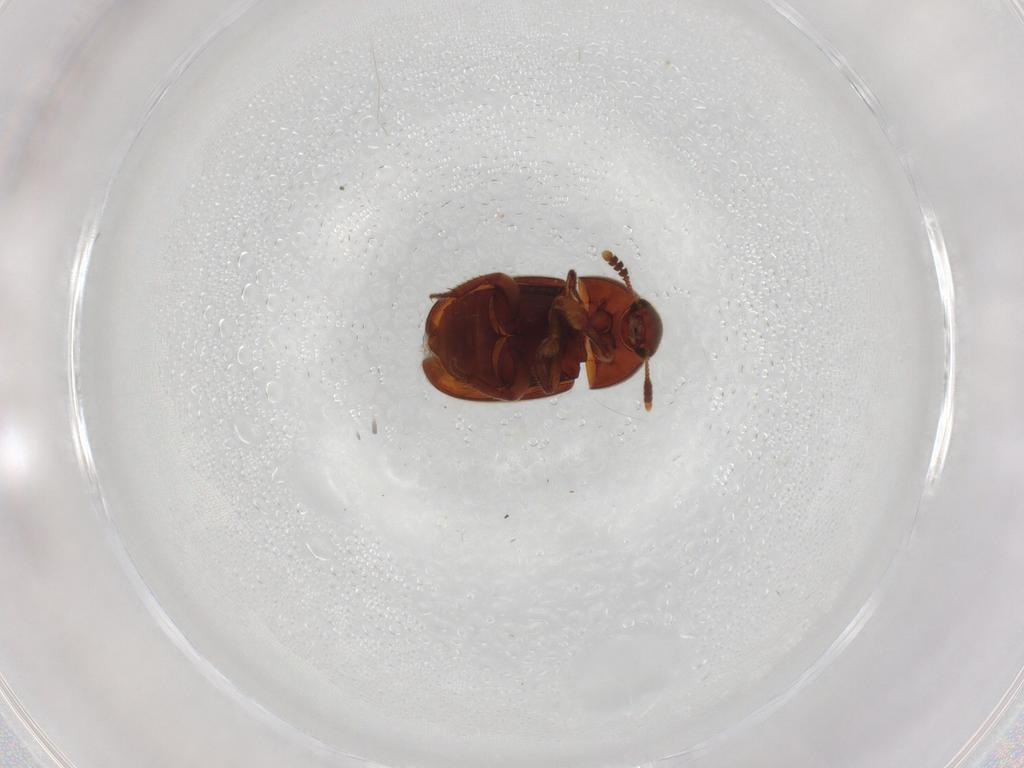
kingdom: Animalia
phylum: Arthropoda
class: Insecta
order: Coleoptera
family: Leiodidae
